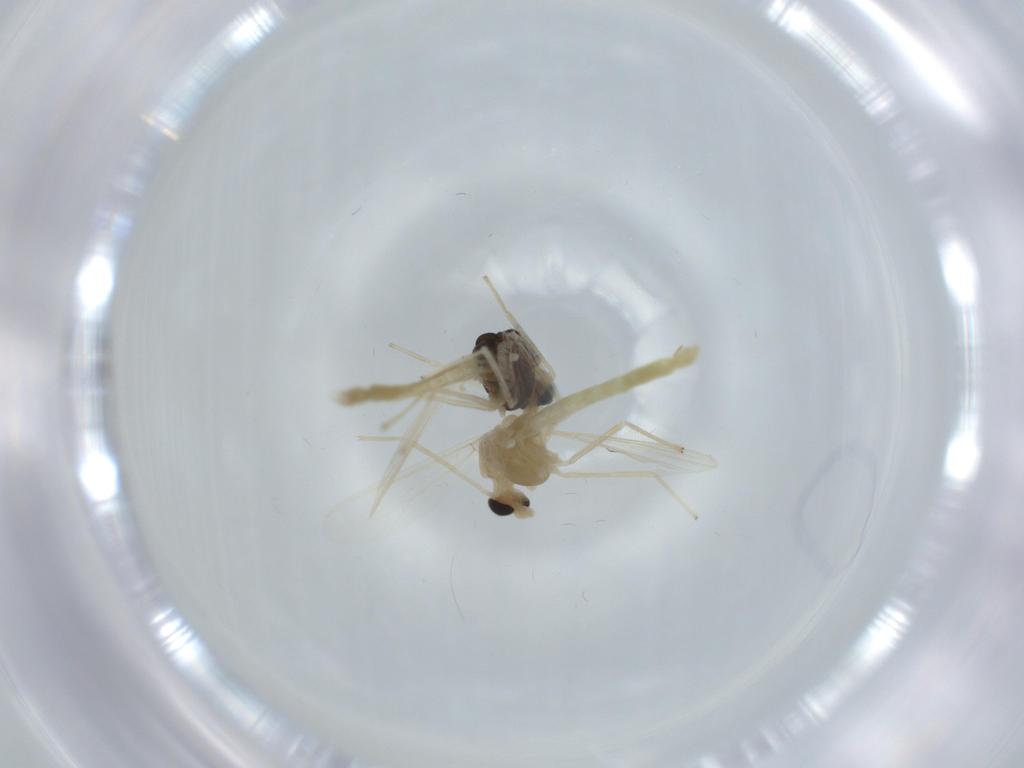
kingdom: Animalia
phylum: Arthropoda
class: Insecta
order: Diptera
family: Chironomidae
